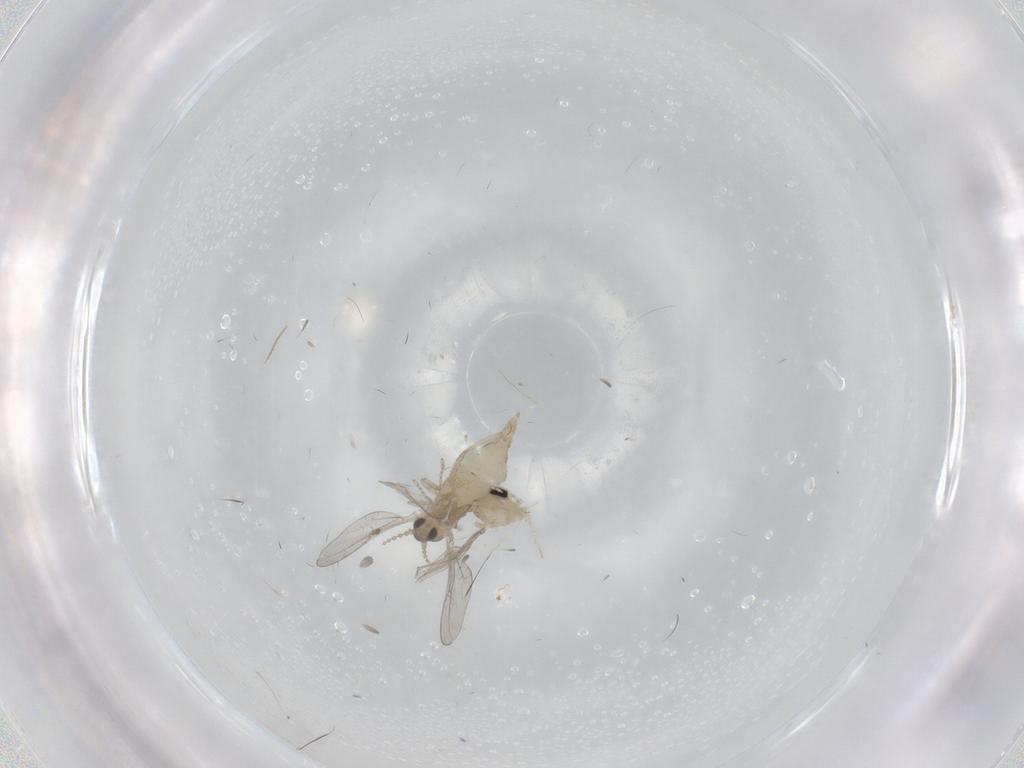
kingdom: Animalia
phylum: Arthropoda
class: Insecta
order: Diptera
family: Cecidomyiidae
